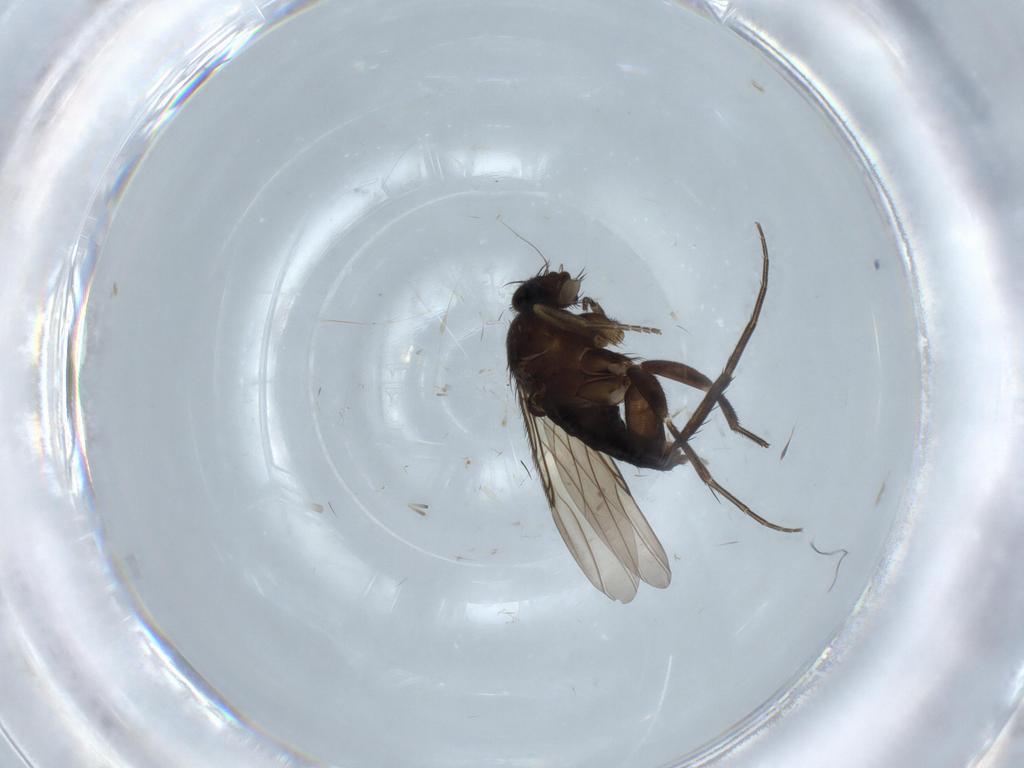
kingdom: Animalia
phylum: Arthropoda
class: Insecta
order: Diptera
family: Phoridae
